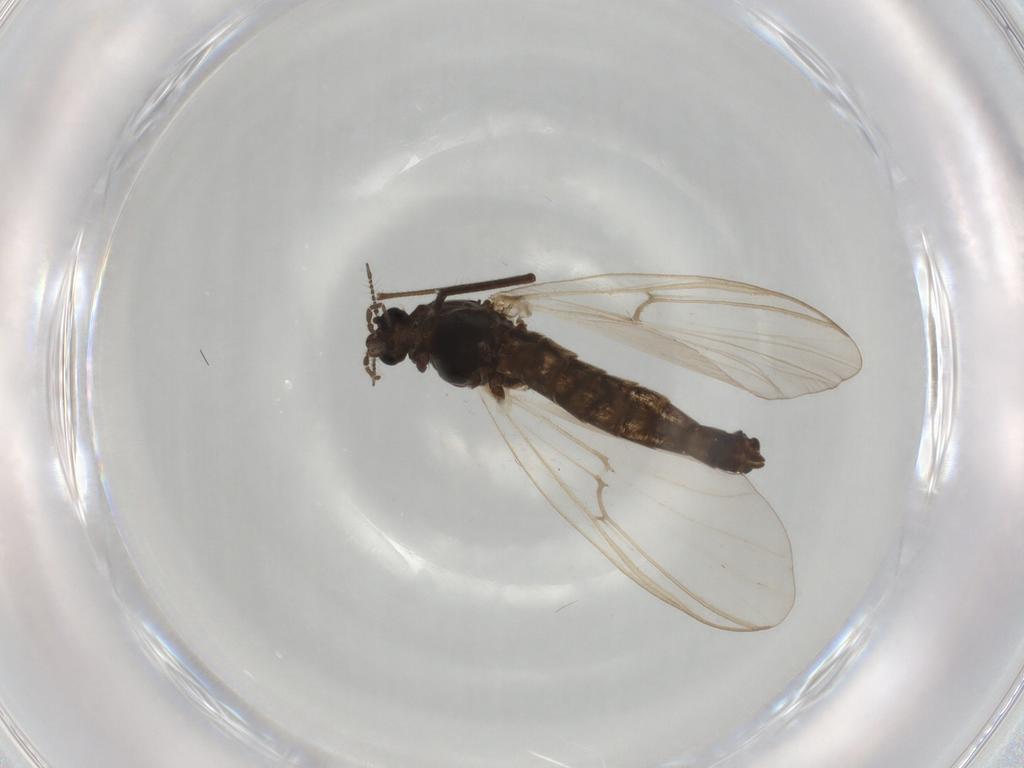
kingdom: Animalia
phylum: Arthropoda
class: Insecta
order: Diptera
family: Chironomidae
